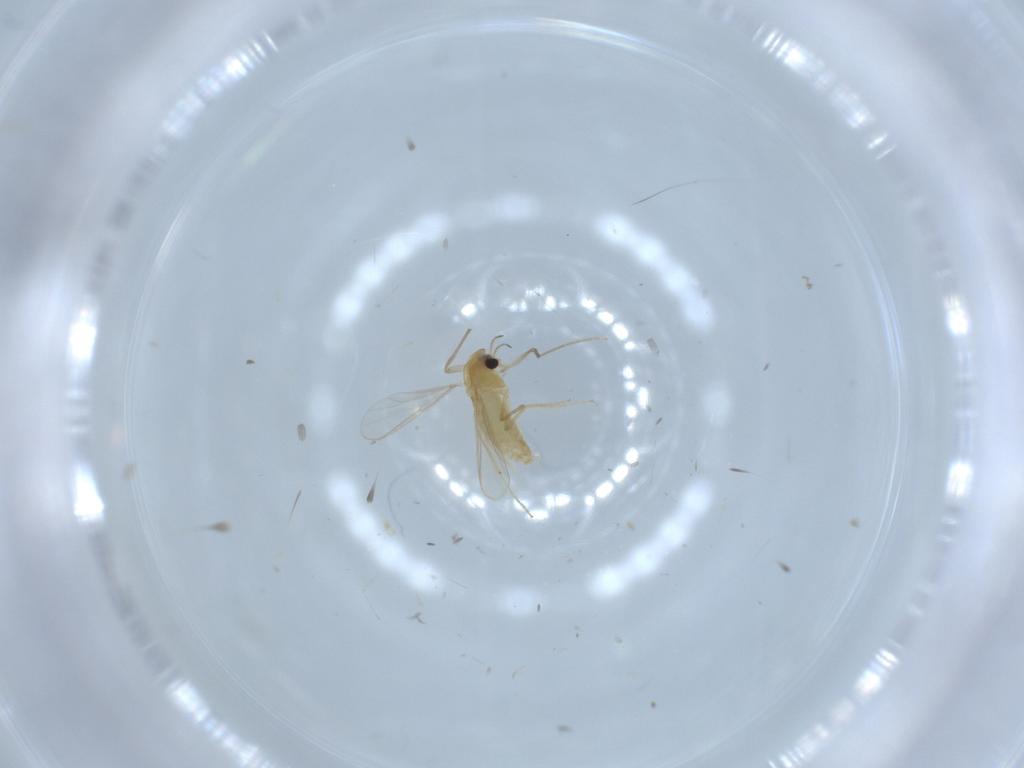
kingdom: Animalia
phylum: Arthropoda
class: Insecta
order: Diptera
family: Chironomidae
